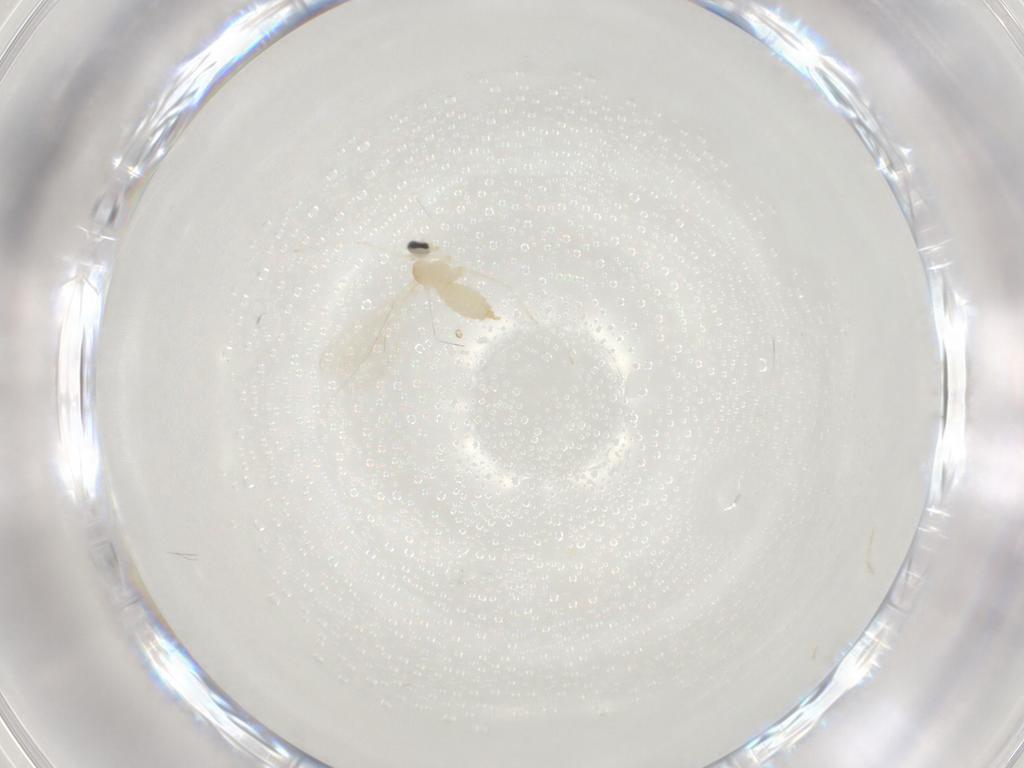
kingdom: Animalia
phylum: Arthropoda
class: Insecta
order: Diptera
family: Cecidomyiidae
